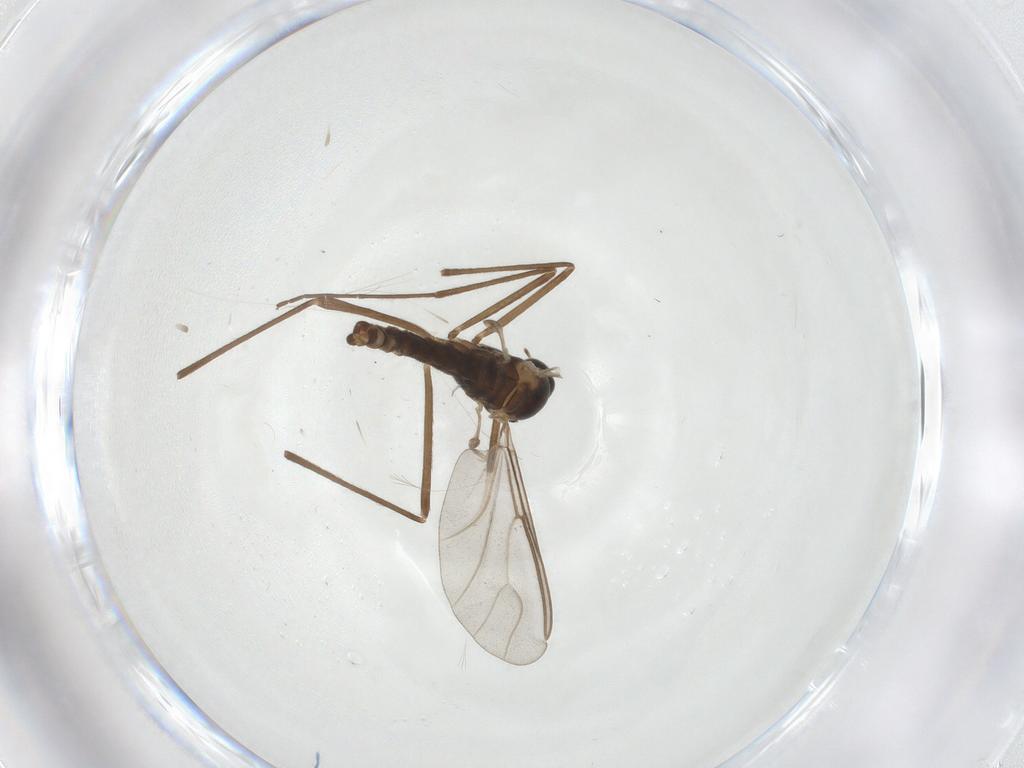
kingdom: Animalia
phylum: Arthropoda
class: Insecta
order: Diptera
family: Cecidomyiidae
